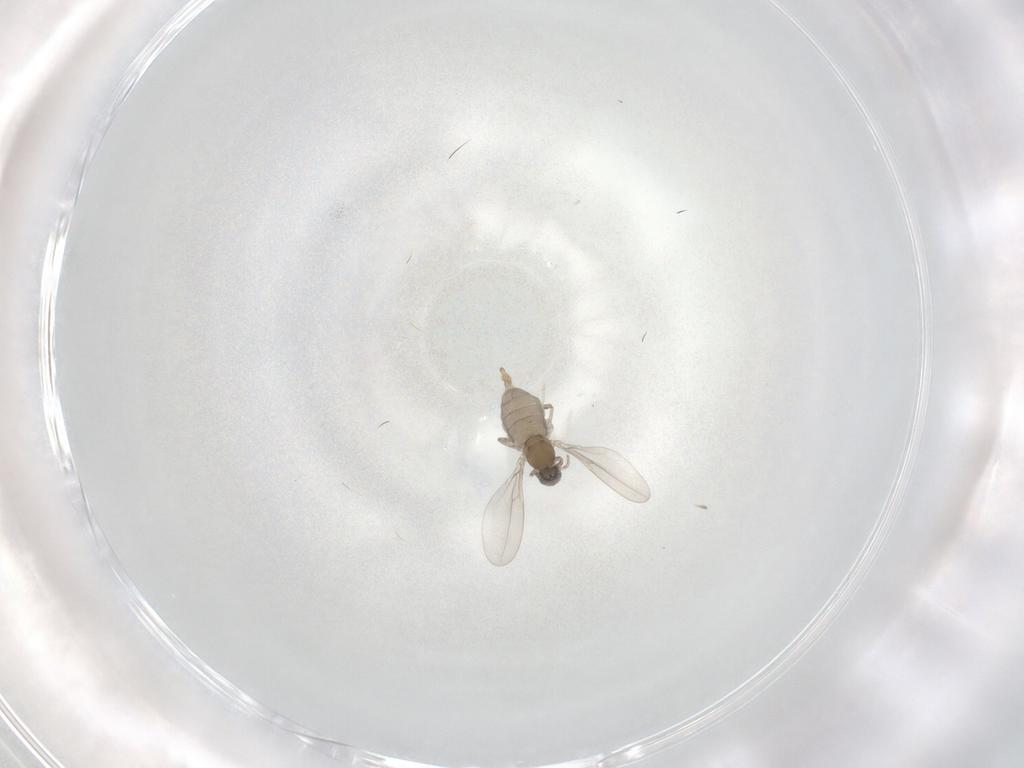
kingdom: Animalia
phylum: Arthropoda
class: Insecta
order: Diptera
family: Cecidomyiidae
